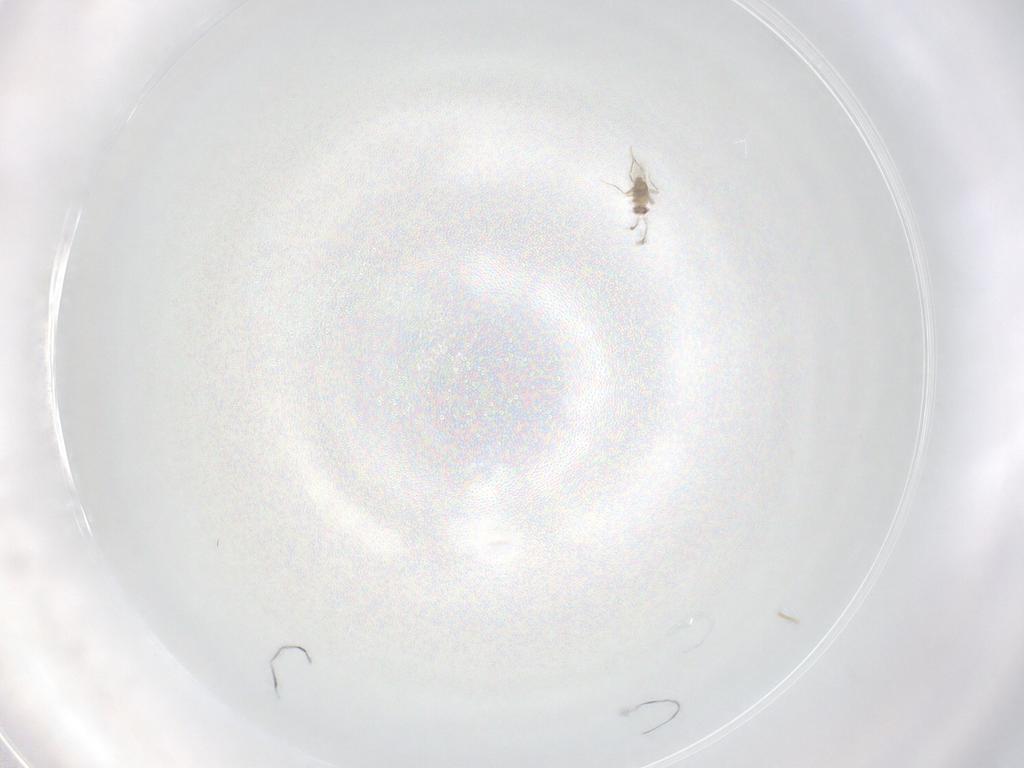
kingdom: Animalia
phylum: Arthropoda
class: Insecta
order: Hymenoptera
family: Mymaridae
